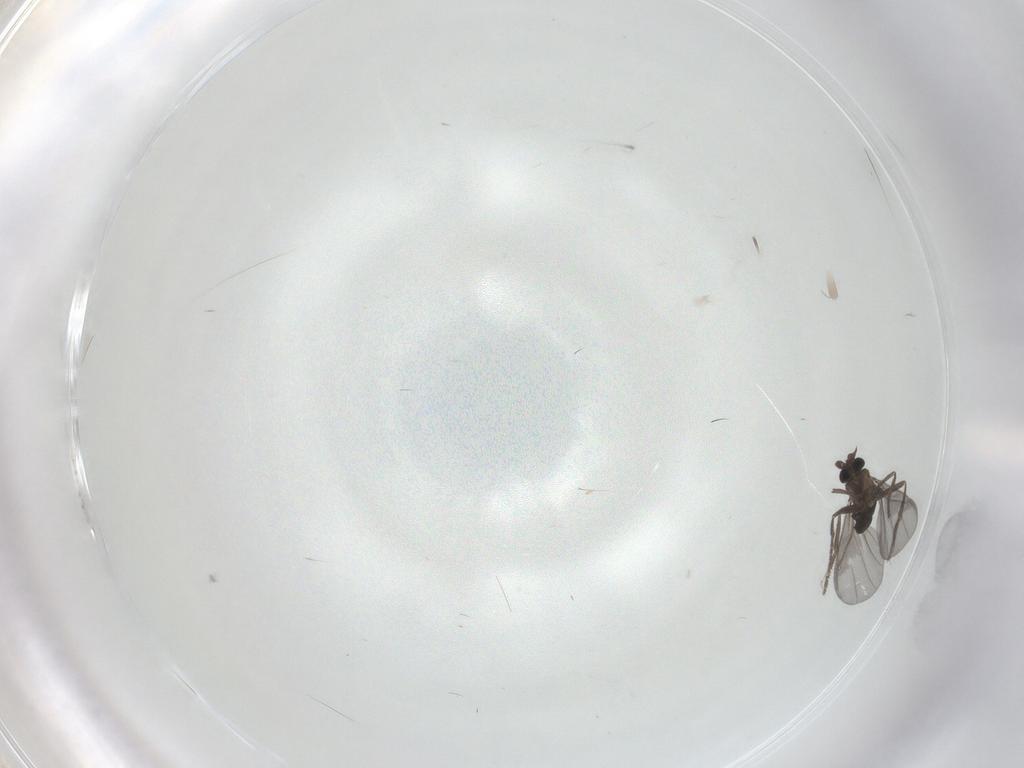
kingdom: Animalia
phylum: Arthropoda
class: Insecta
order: Diptera
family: Phoridae
